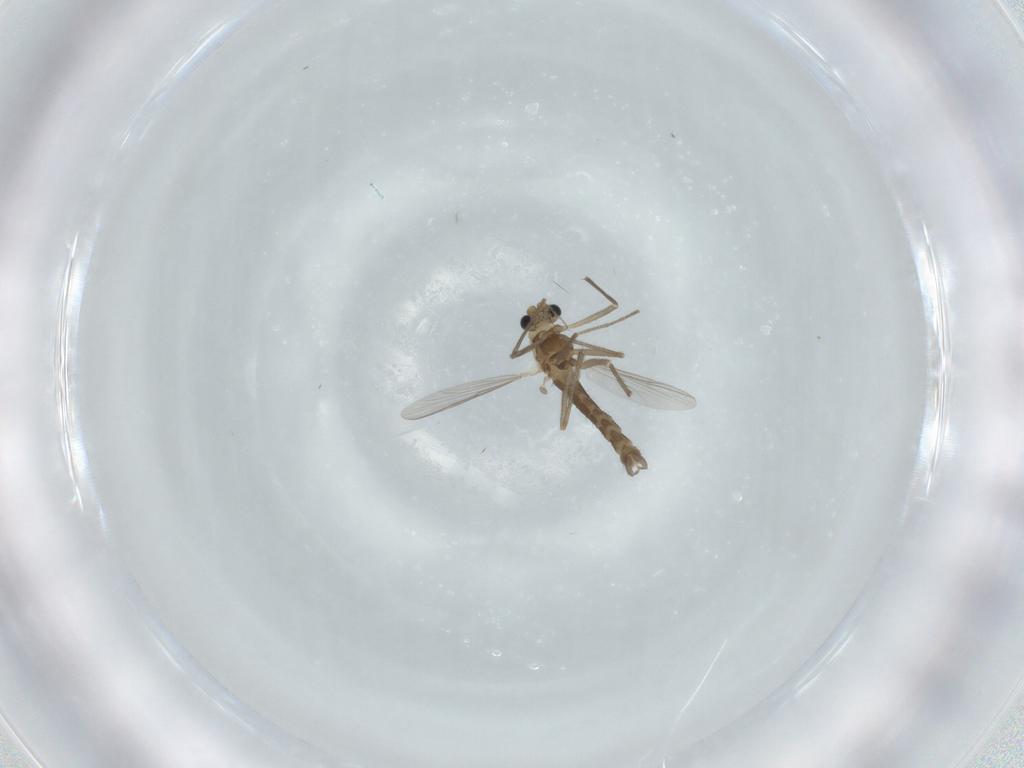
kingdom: Animalia
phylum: Arthropoda
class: Insecta
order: Diptera
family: Chironomidae
